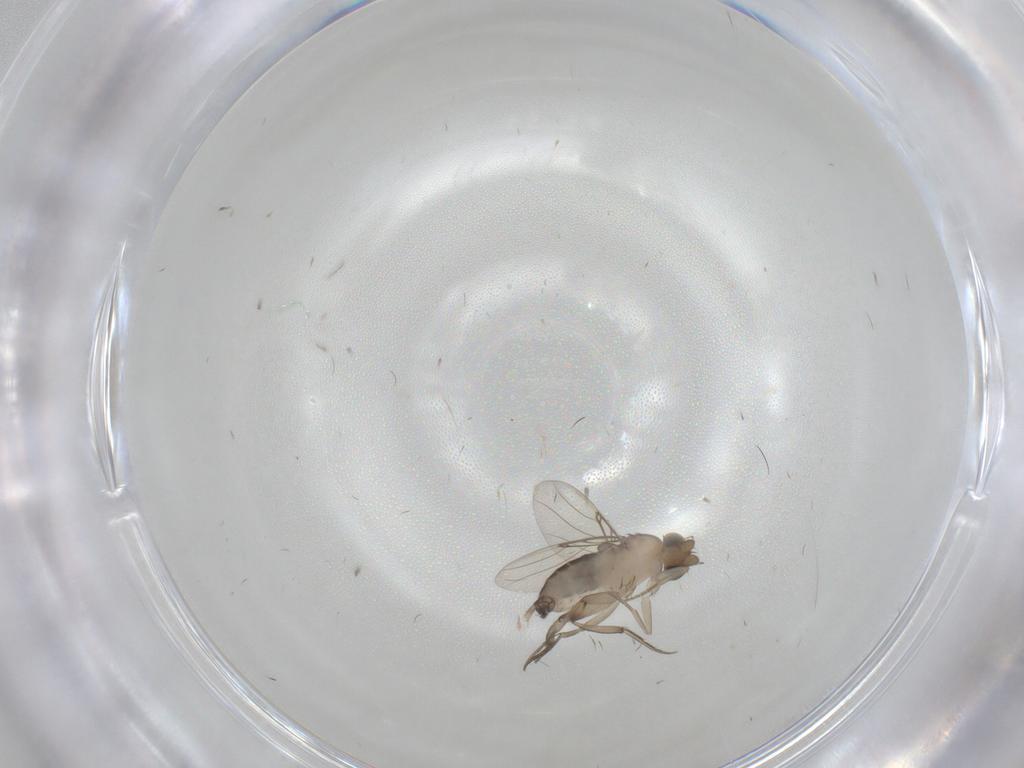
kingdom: Animalia
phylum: Arthropoda
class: Insecta
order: Diptera
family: Phoridae
